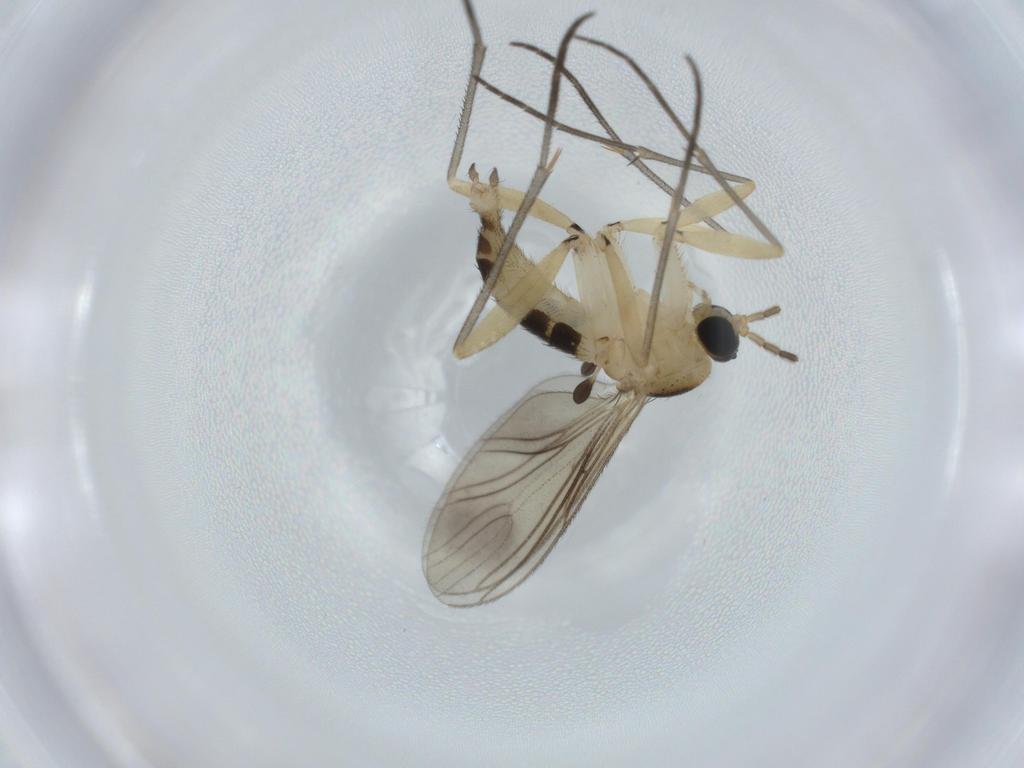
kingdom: Animalia
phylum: Arthropoda
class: Insecta
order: Diptera
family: Sciaridae
